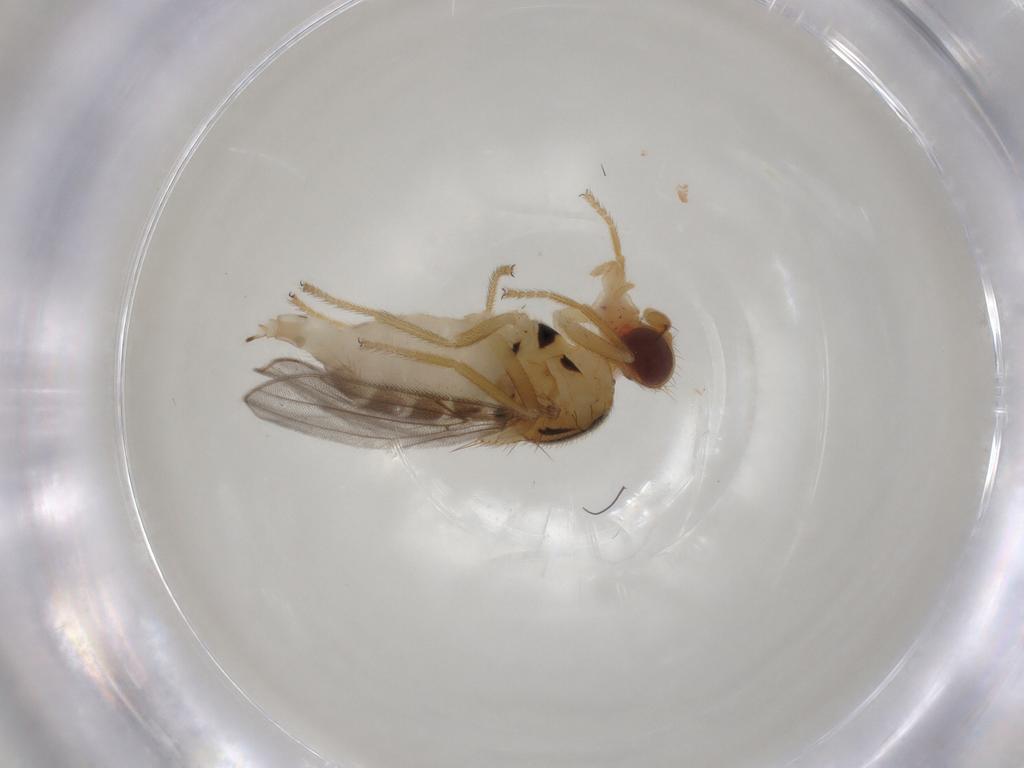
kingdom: Animalia
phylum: Arthropoda
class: Insecta
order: Diptera
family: Chloropidae
